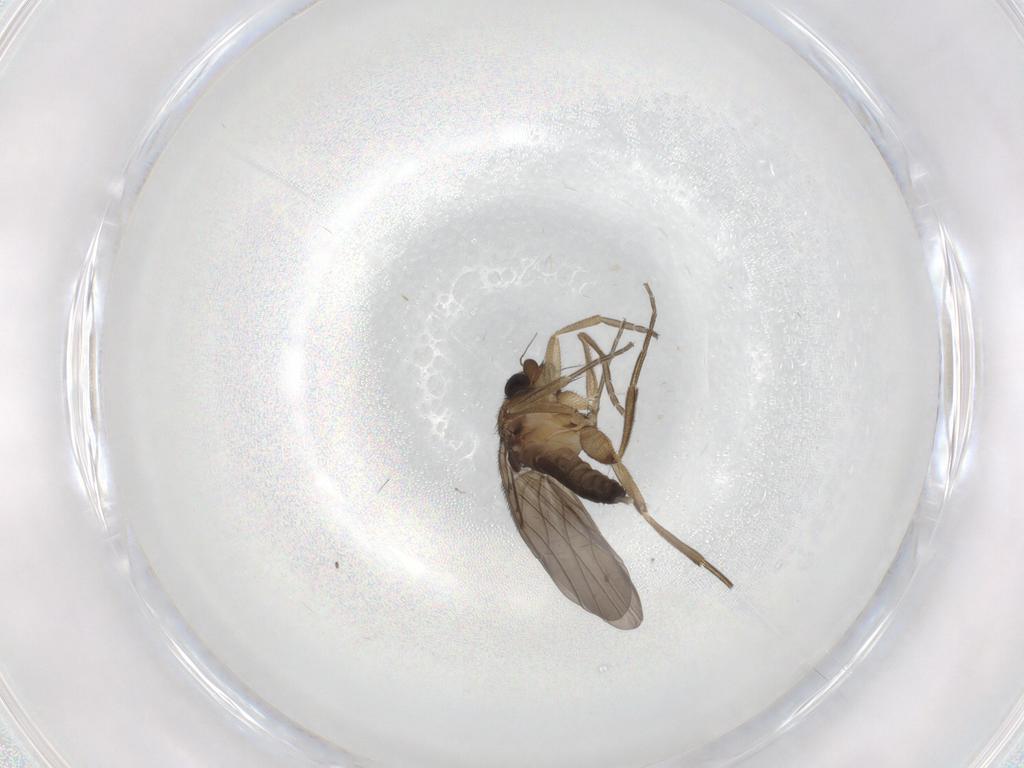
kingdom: Animalia
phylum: Arthropoda
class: Insecta
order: Diptera
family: Phoridae
